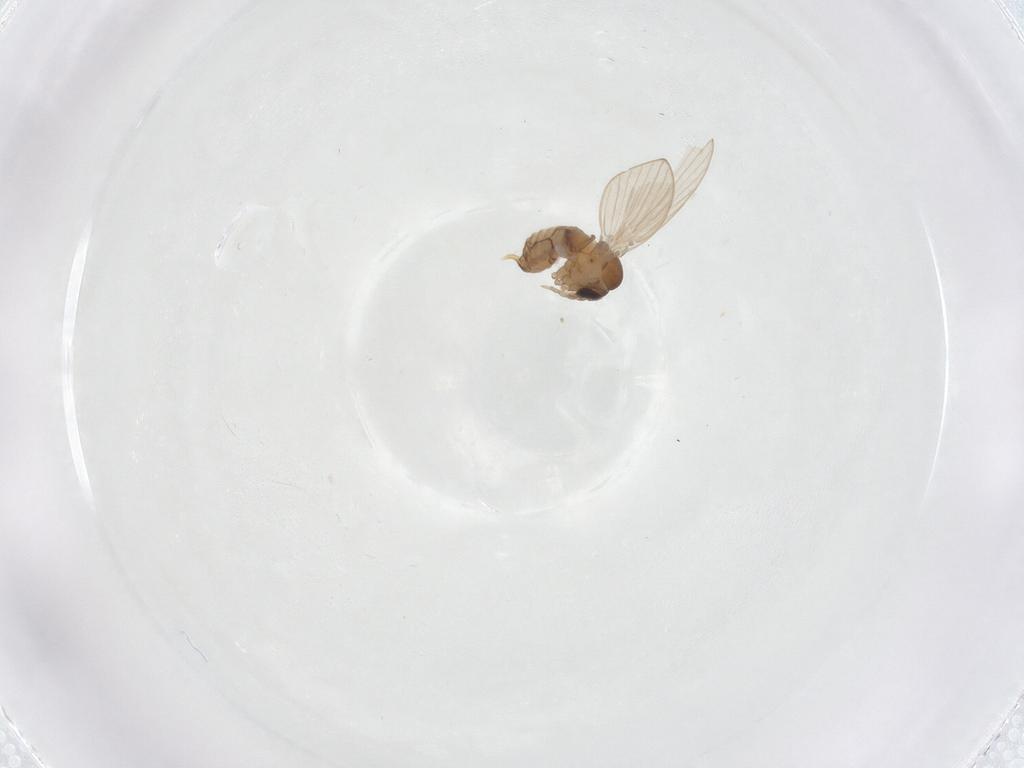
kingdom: Animalia
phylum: Arthropoda
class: Insecta
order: Diptera
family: Psychodidae
